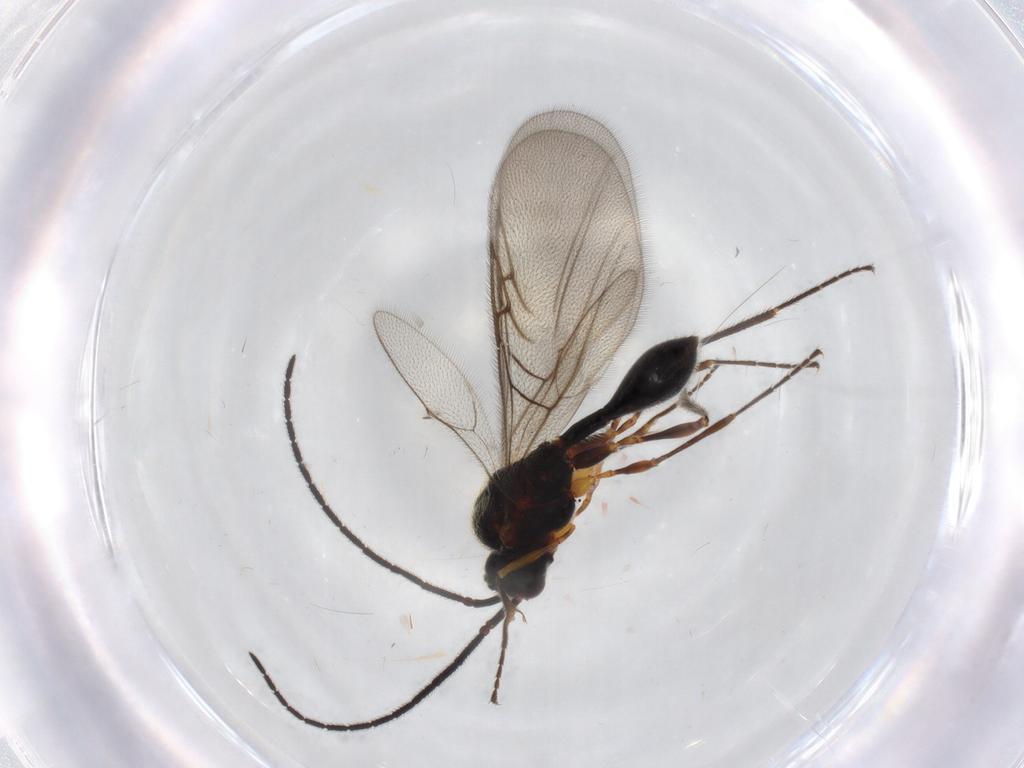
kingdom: Animalia
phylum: Arthropoda
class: Insecta
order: Hymenoptera
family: Diapriidae
